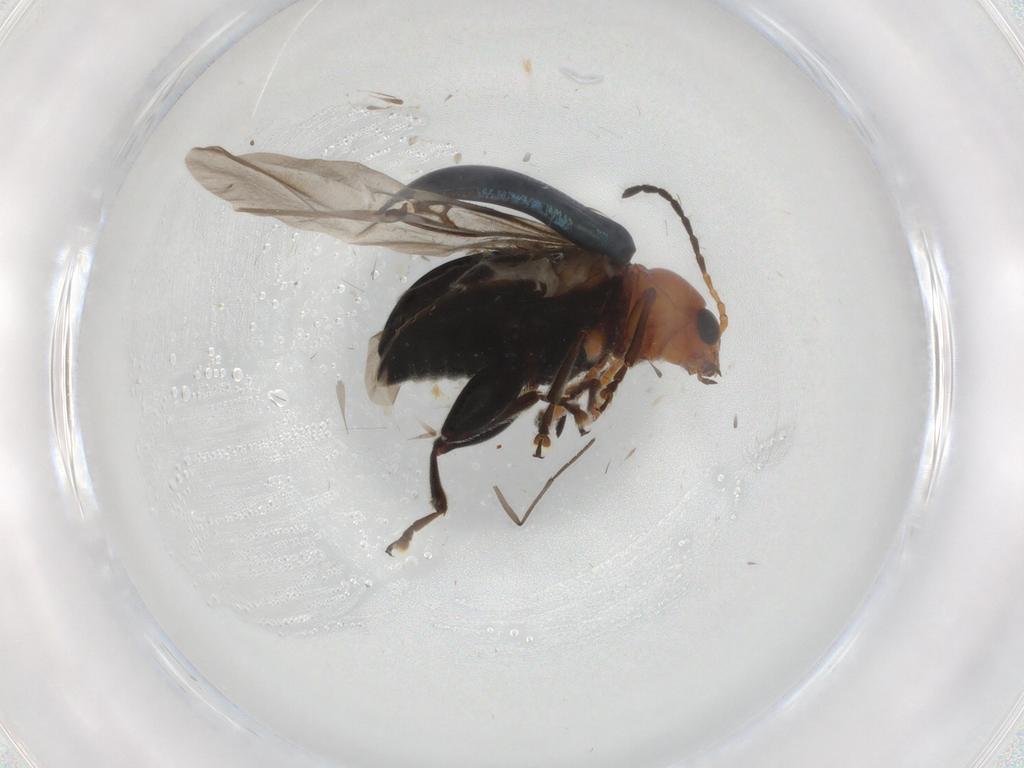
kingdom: Animalia
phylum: Arthropoda
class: Insecta
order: Coleoptera
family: Chrysomelidae
